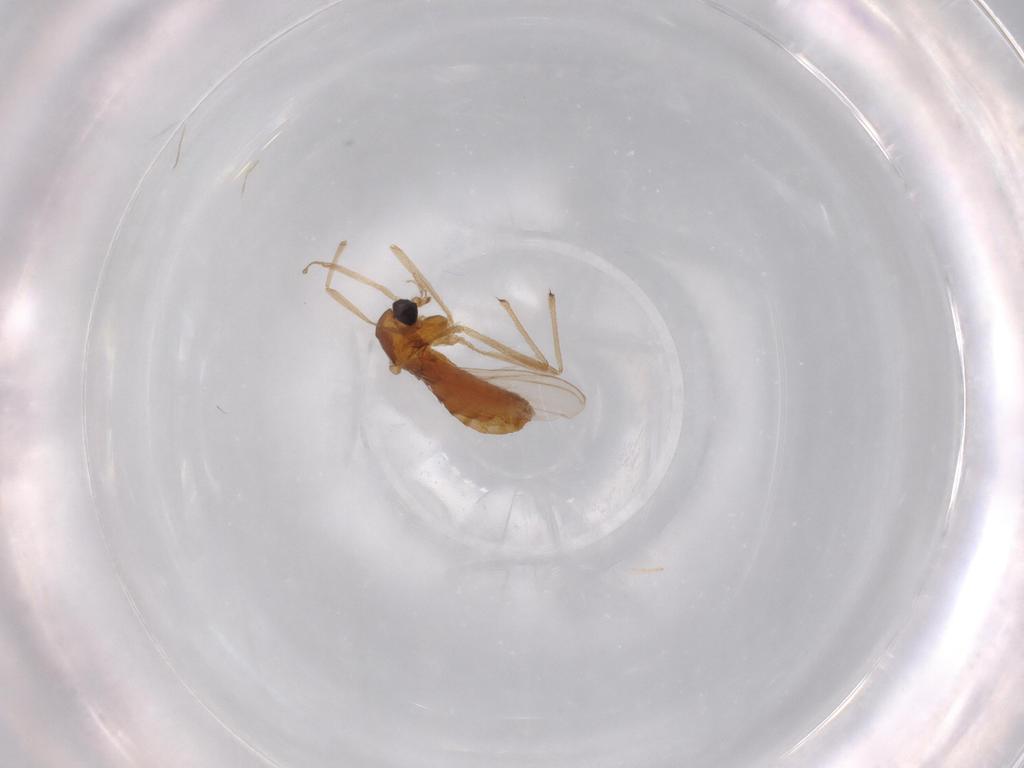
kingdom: Animalia
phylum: Arthropoda
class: Insecta
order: Diptera
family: Chironomidae
